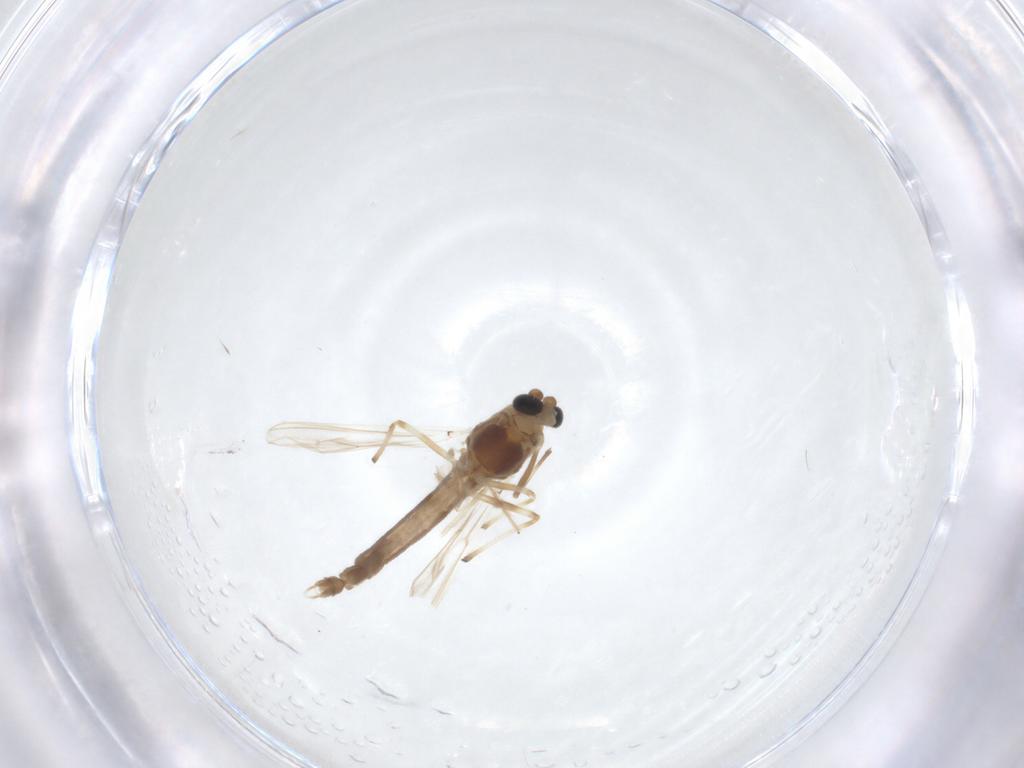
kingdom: Animalia
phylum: Arthropoda
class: Insecta
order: Diptera
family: Chironomidae
